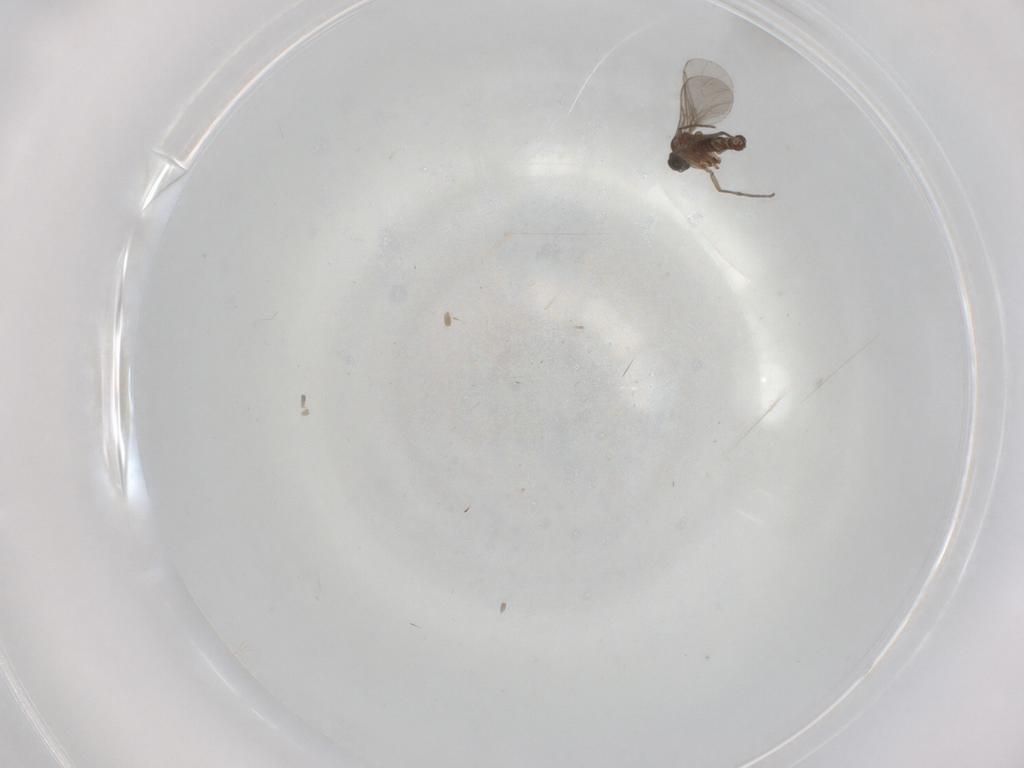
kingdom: Animalia
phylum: Arthropoda
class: Insecta
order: Diptera
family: Sciaridae
